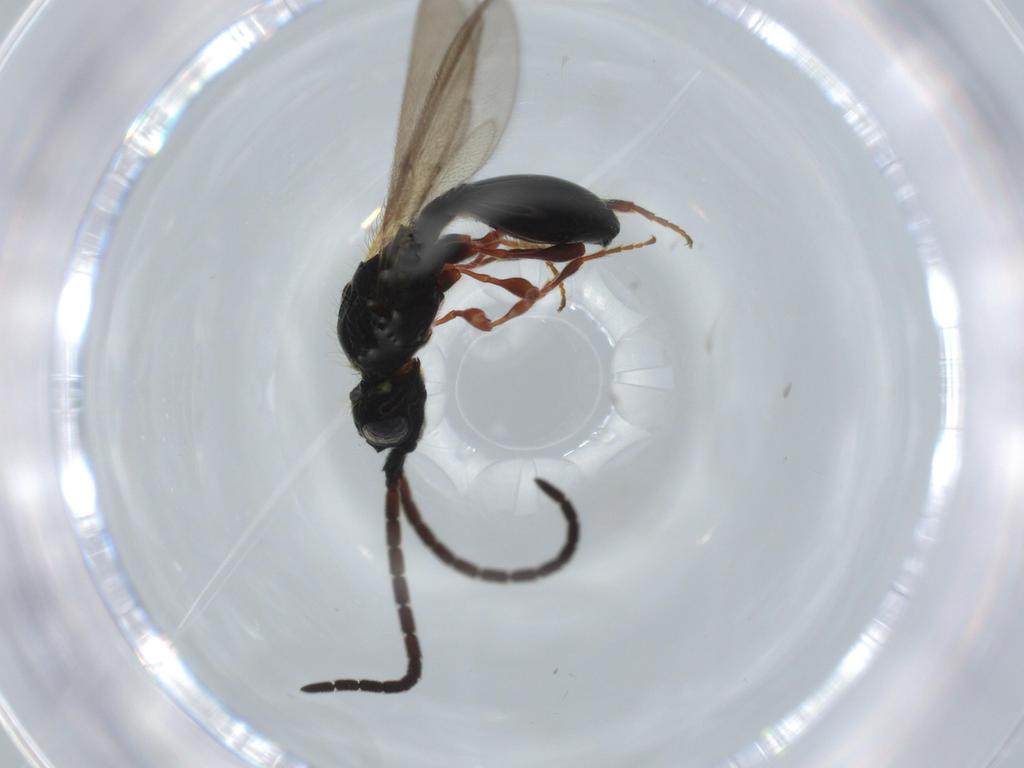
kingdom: Animalia
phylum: Arthropoda
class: Insecta
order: Hymenoptera
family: Diapriidae
